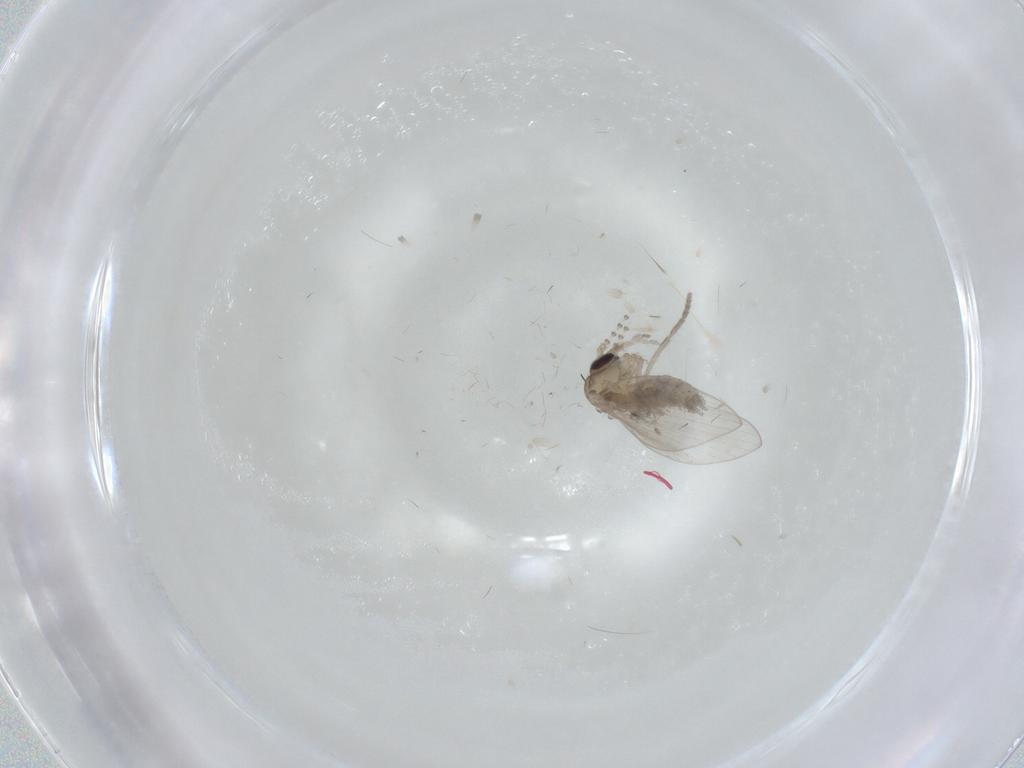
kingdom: Animalia
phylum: Arthropoda
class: Insecta
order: Diptera
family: Psychodidae
